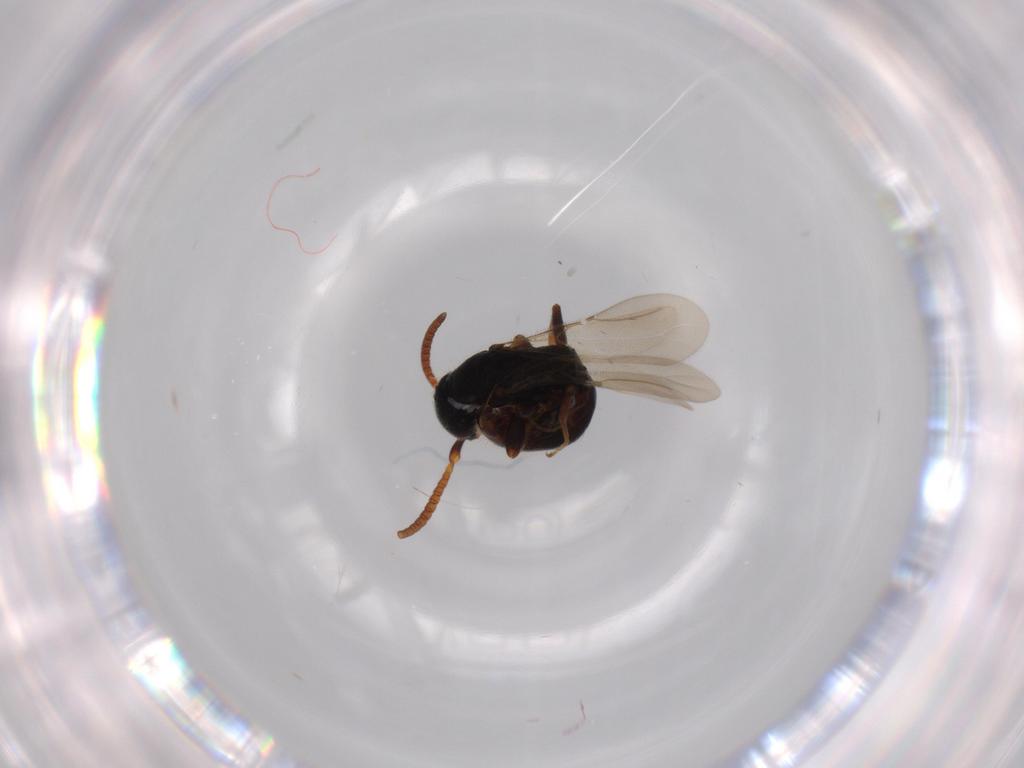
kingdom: Animalia
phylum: Arthropoda
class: Insecta
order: Hymenoptera
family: Bethylidae
